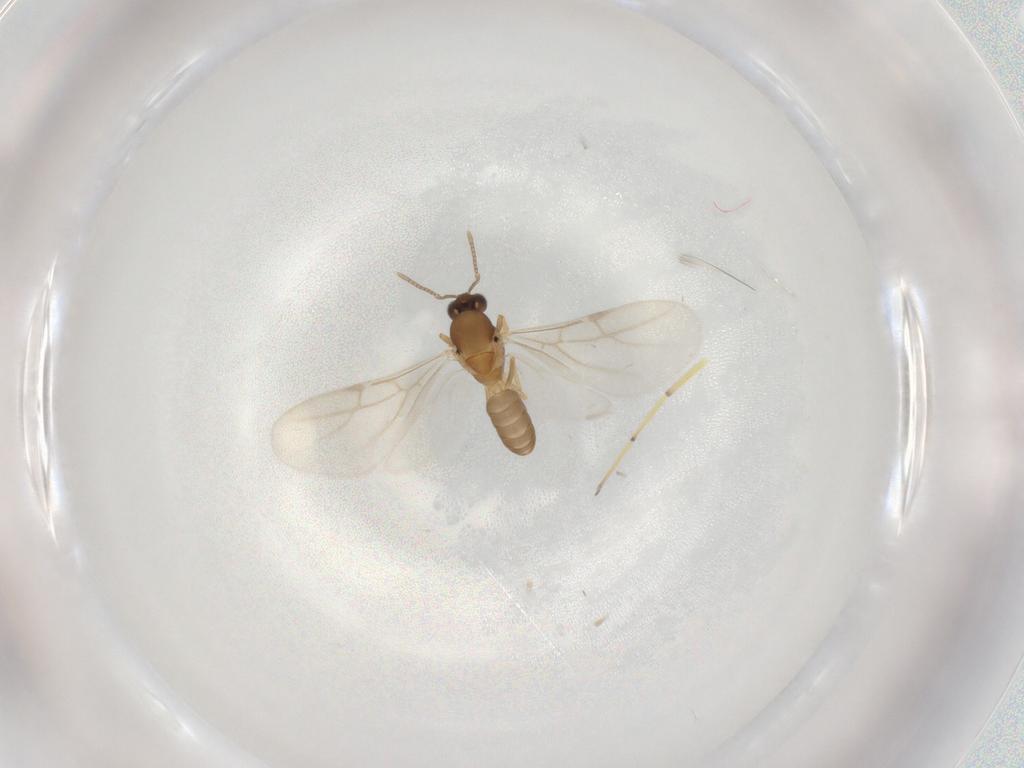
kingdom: Animalia
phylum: Arthropoda
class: Insecta
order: Hymenoptera
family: Formicidae
